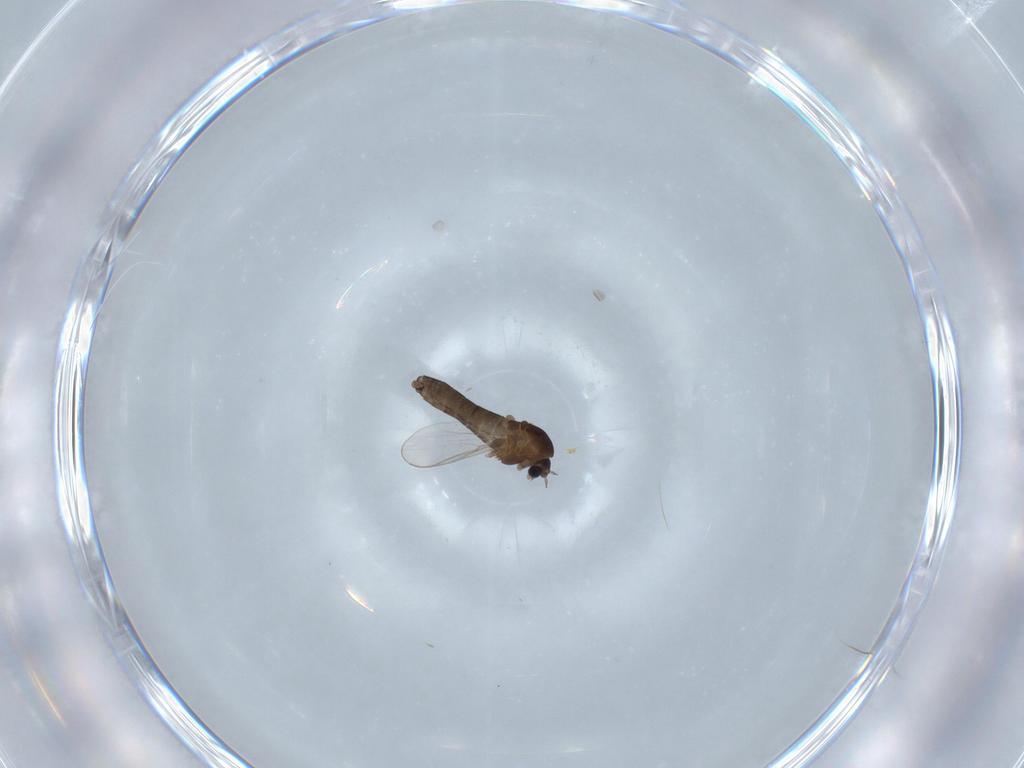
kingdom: Animalia
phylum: Arthropoda
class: Insecta
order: Diptera
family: Chironomidae
